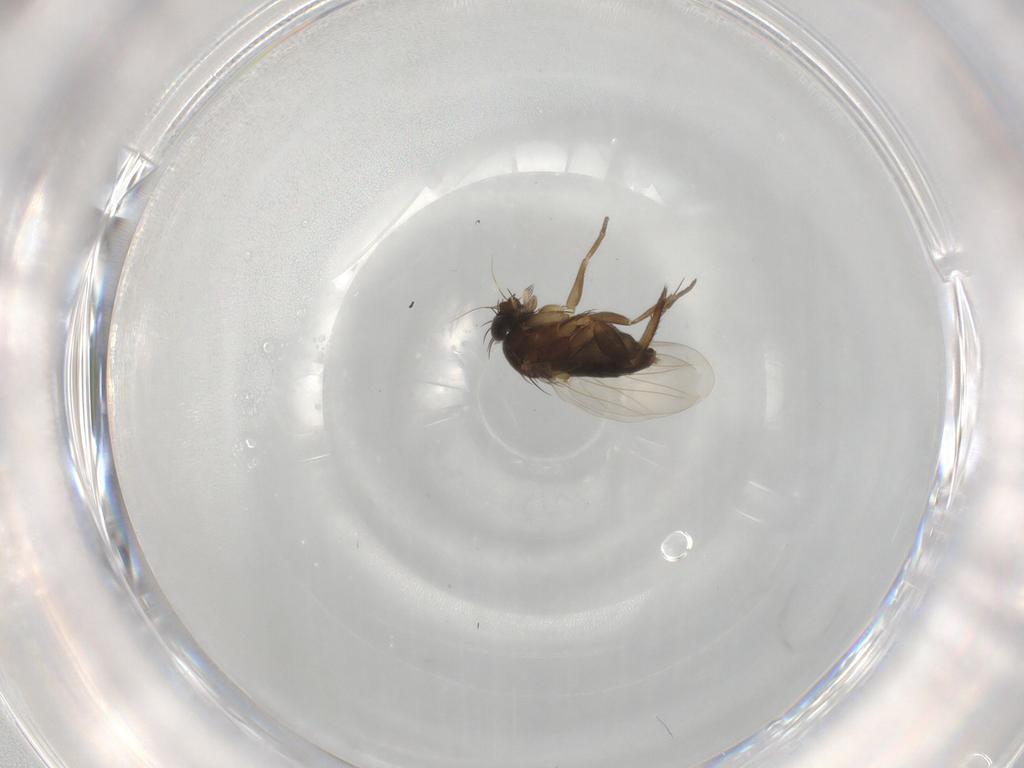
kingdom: Animalia
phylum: Arthropoda
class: Insecta
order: Diptera
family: Phoridae
